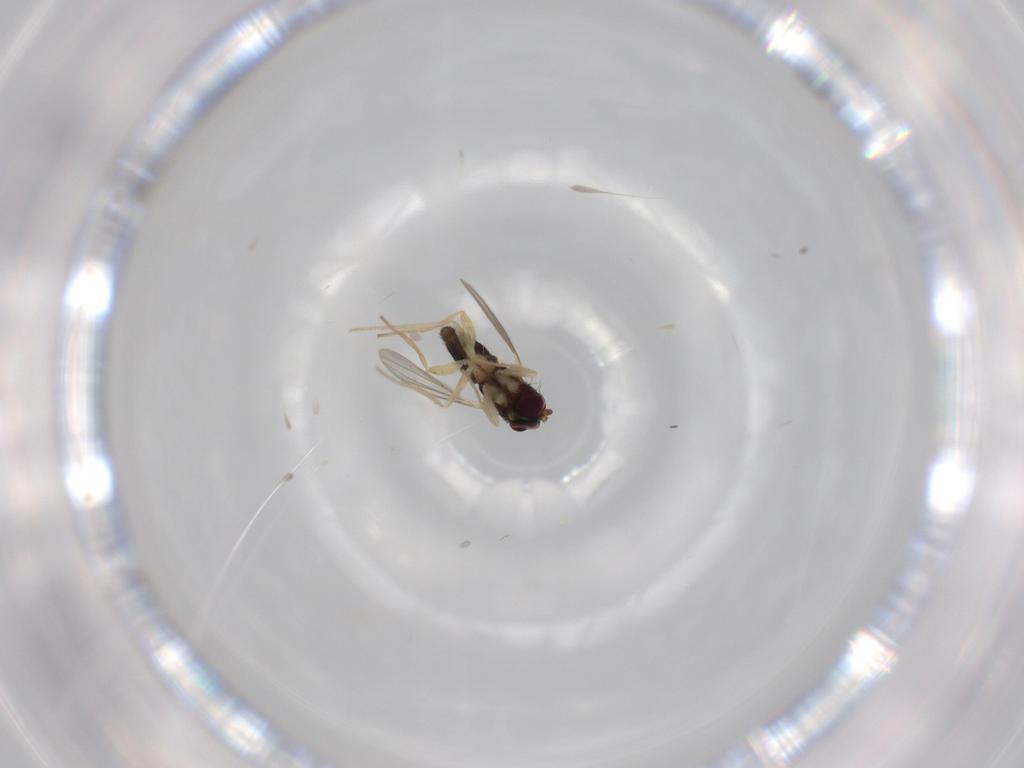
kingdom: Animalia
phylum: Arthropoda
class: Insecta
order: Diptera
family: Dolichopodidae
